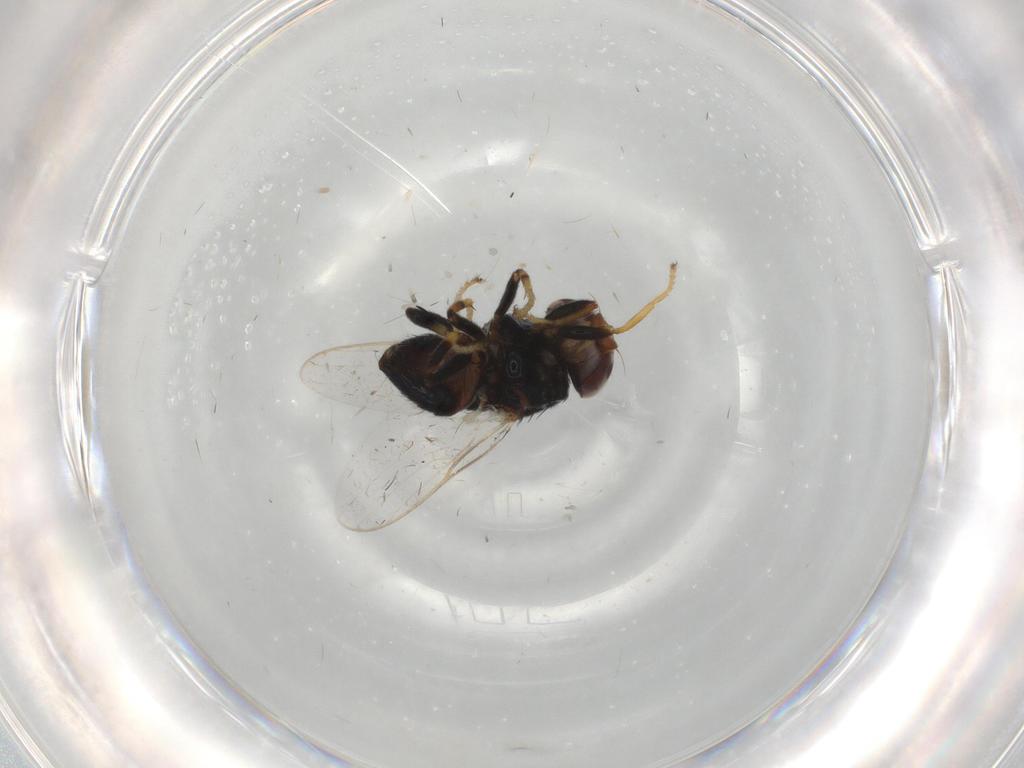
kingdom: Animalia
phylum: Arthropoda
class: Insecta
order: Diptera
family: Chloropidae
